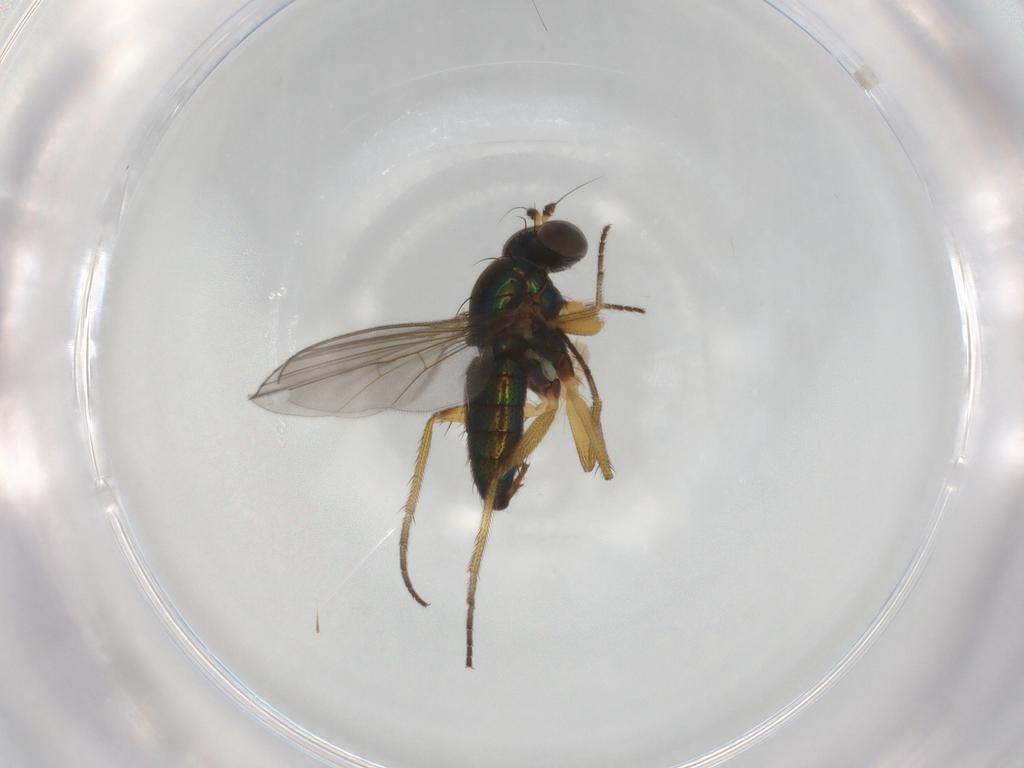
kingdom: Animalia
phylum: Arthropoda
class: Insecta
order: Diptera
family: Dolichopodidae
